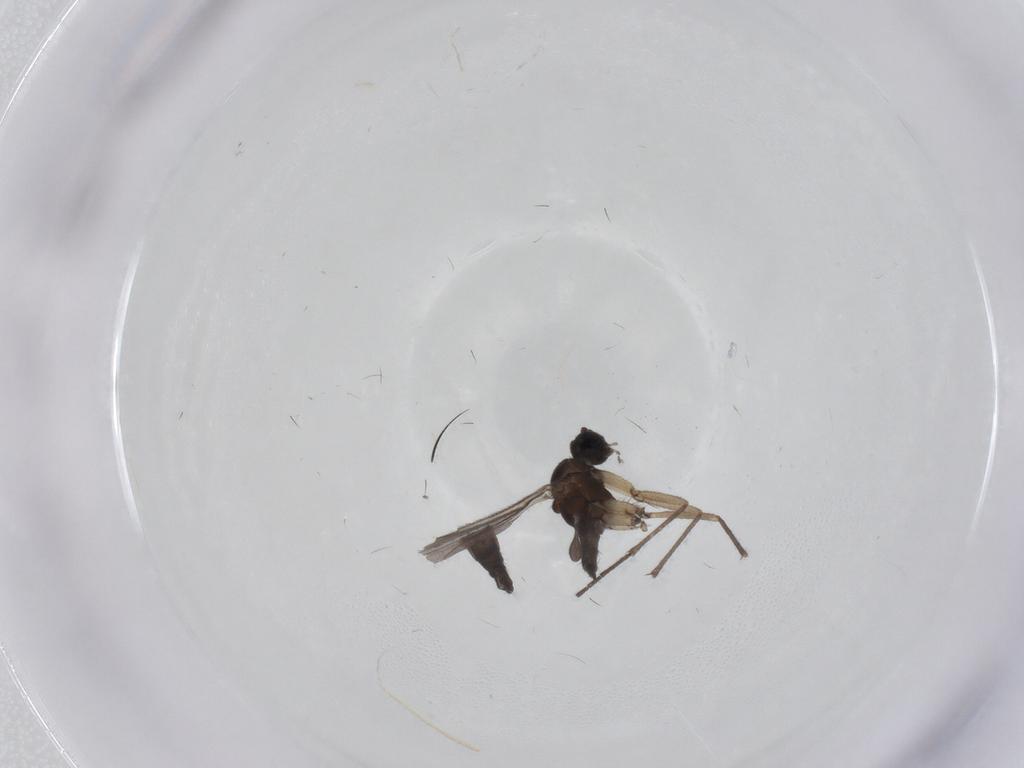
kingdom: Animalia
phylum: Arthropoda
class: Insecta
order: Diptera
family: Sciaridae
